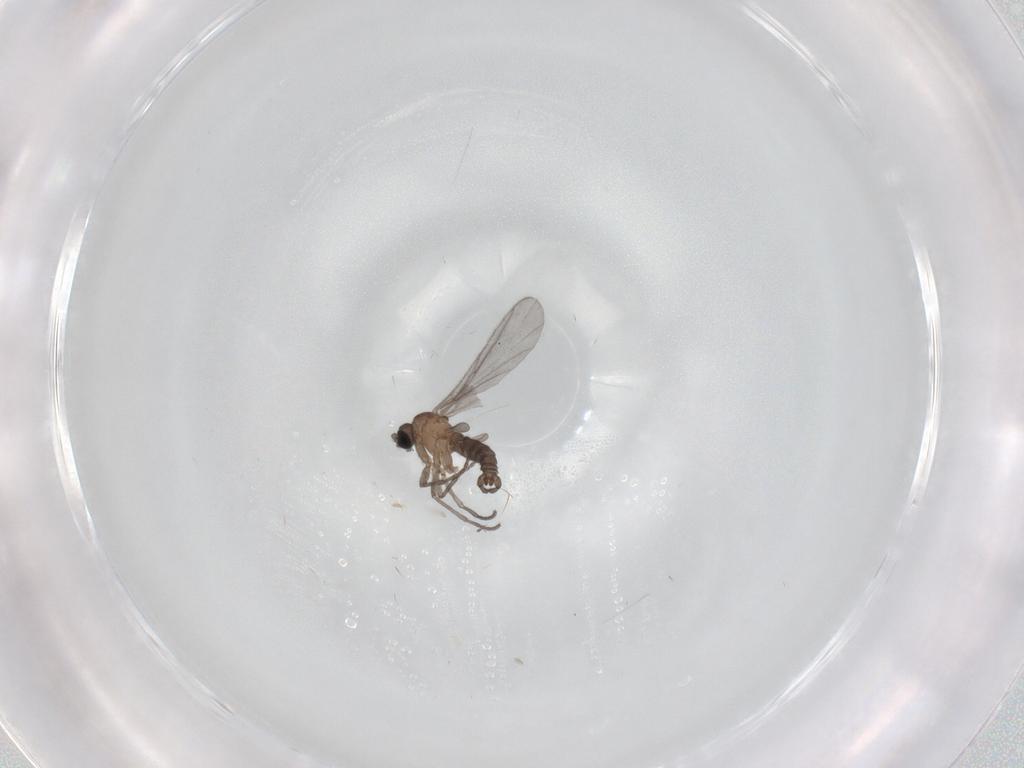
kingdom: Animalia
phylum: Arthropoda
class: Insecta
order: Diptera
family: Sciaridae
